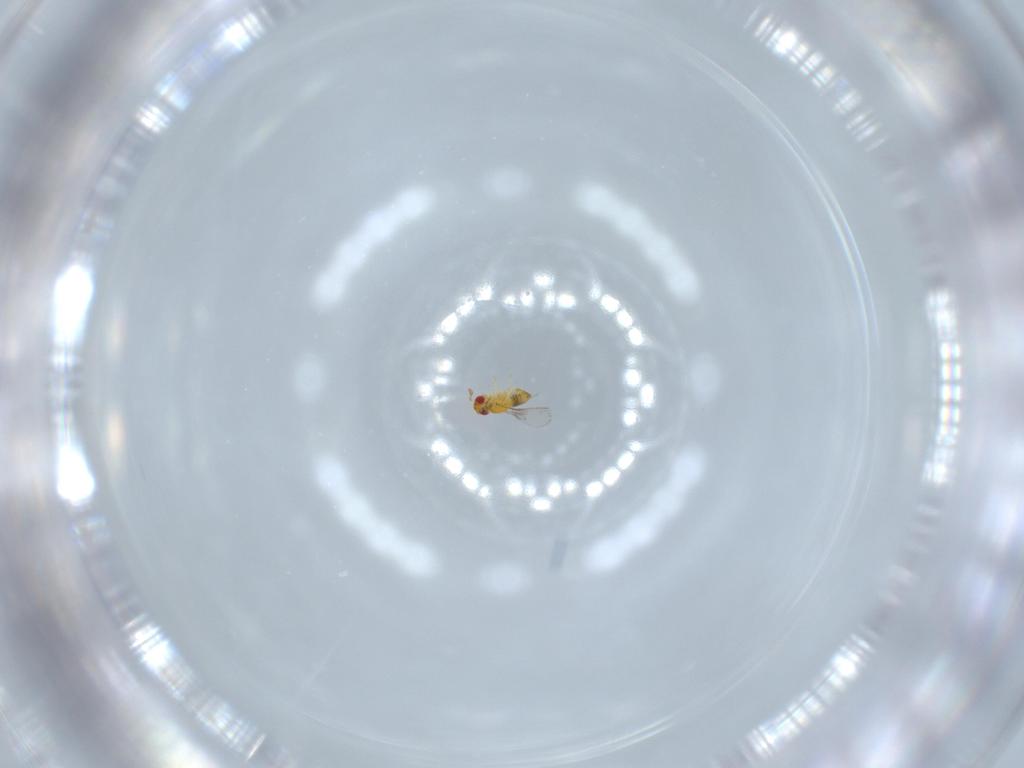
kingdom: Animalia
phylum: Arthropoda
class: Insecta
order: Hymenoptera
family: Trichogrammatidae
